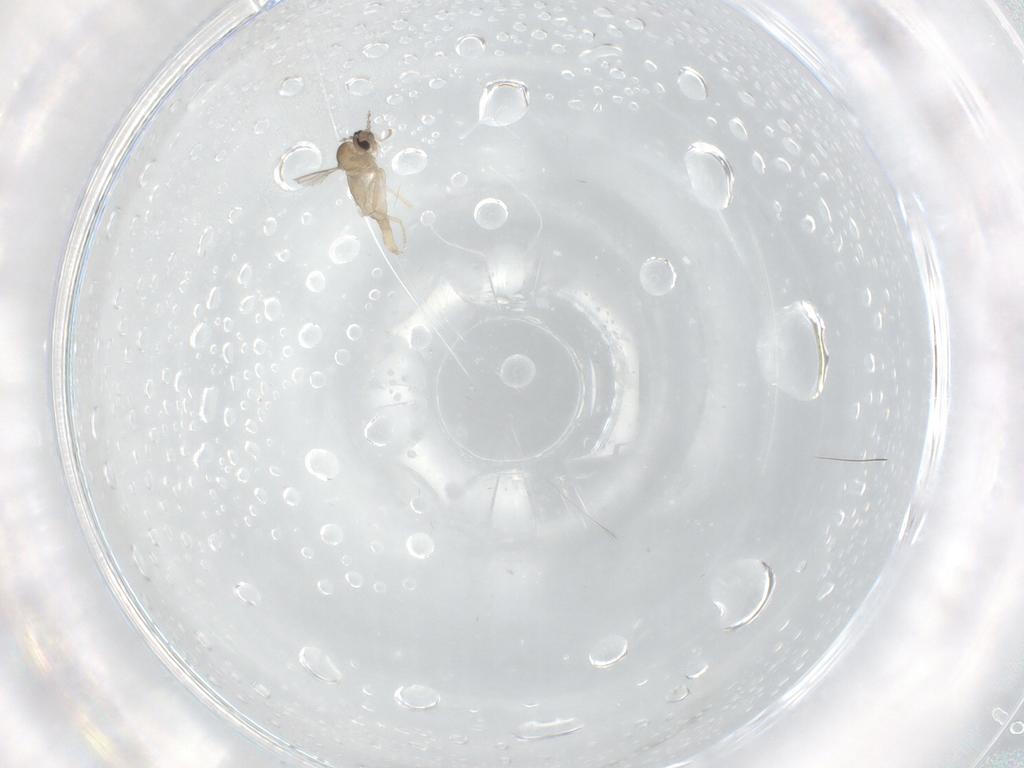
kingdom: Animalia
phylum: Arthropoda
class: Insecta
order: Diptera
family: Cecidomyiidae
